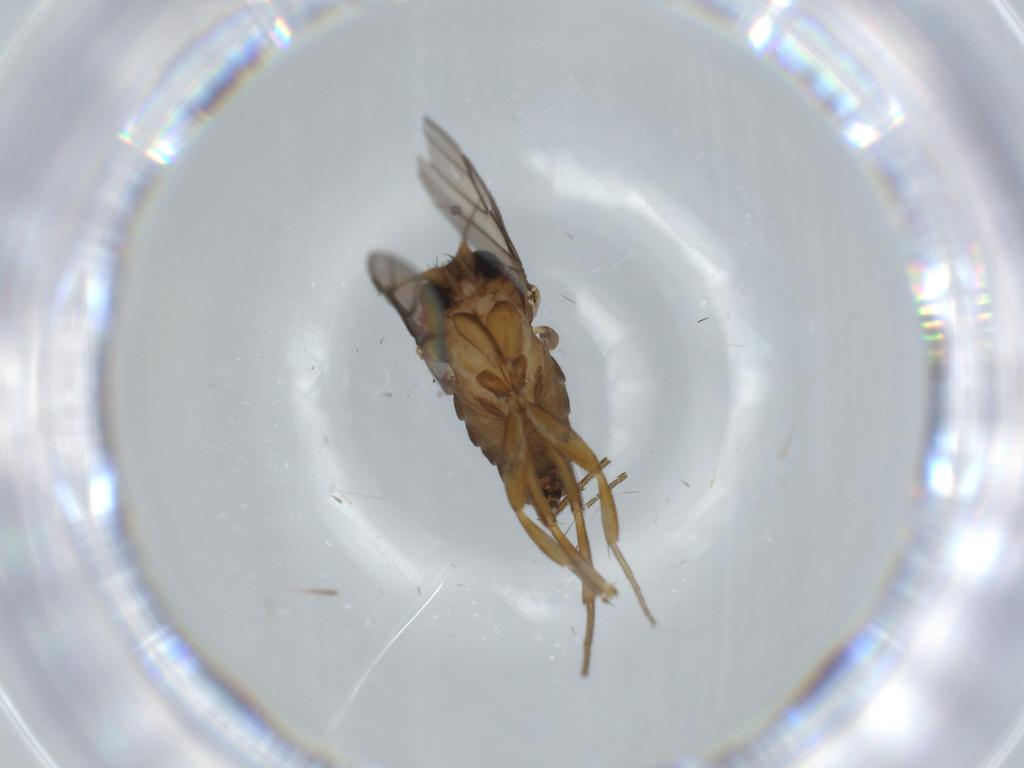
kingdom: Animalia
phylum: Arthropoda
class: Insecta
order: Diptera
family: Phoridae
